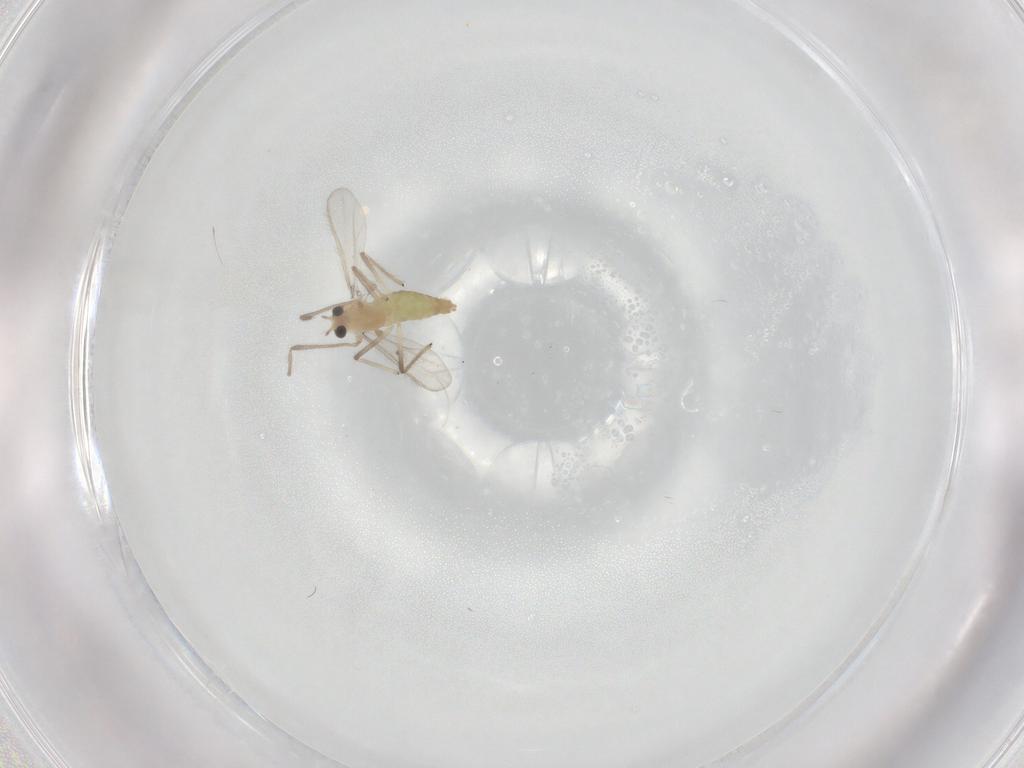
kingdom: Animalia
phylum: Arthropoda
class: Insecta
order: Diptera
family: Chironomidae
